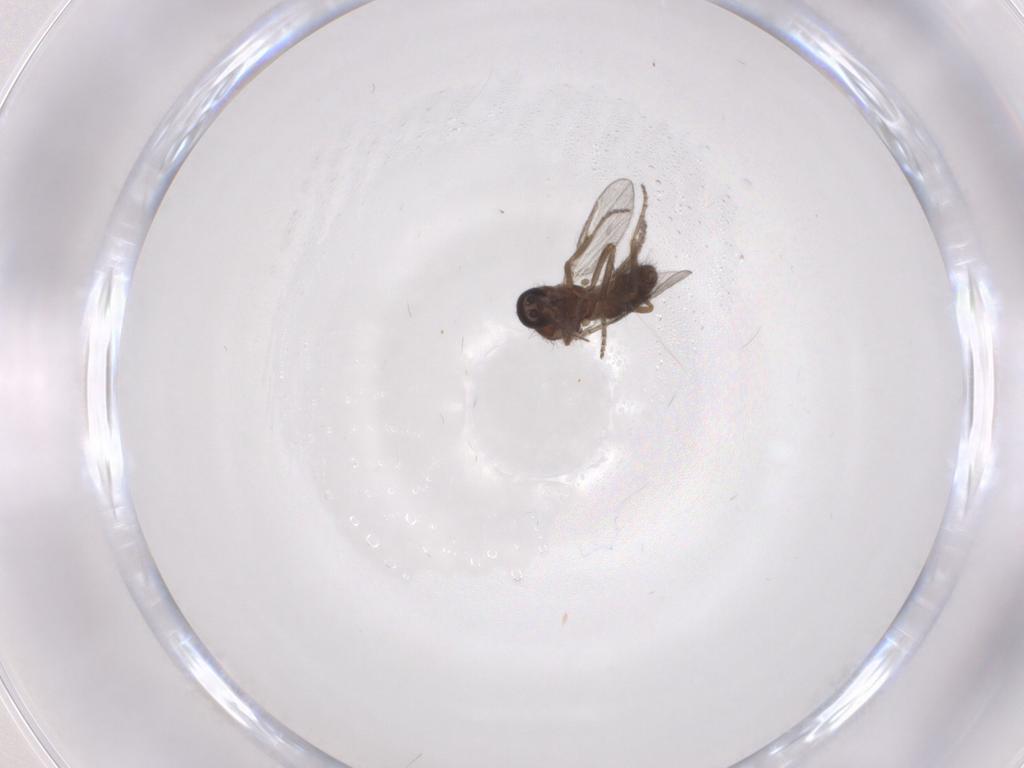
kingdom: Animalia
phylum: Arthropoda
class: Insecta
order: Diptera
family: Ceratopogonidae
